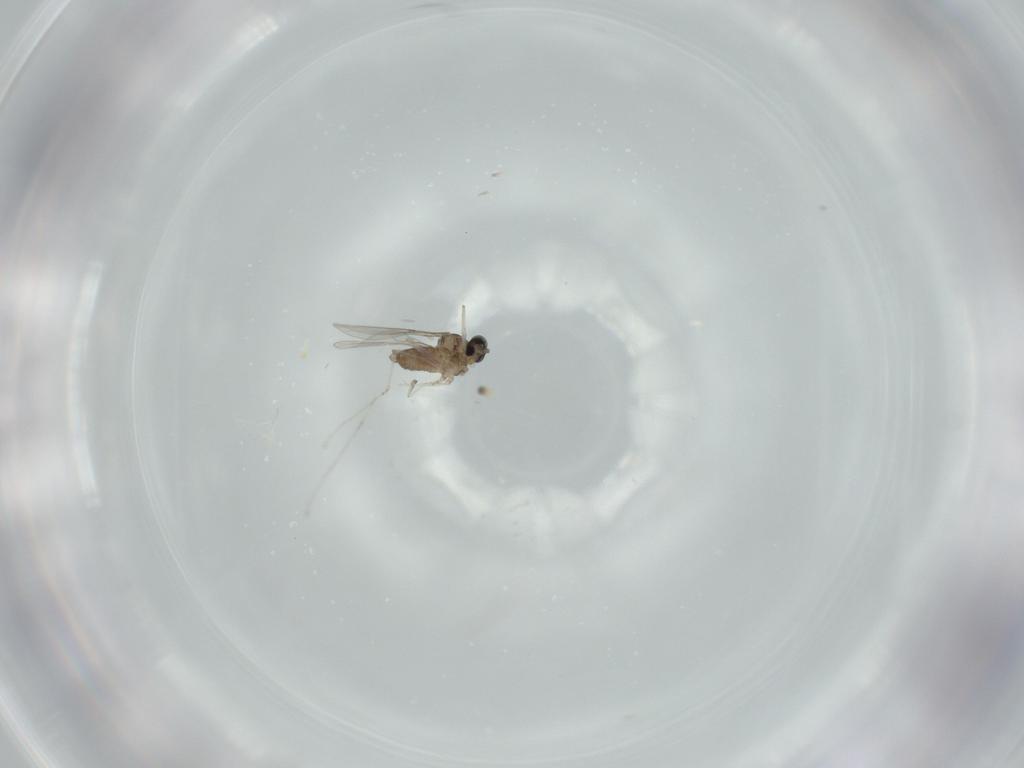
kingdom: Animalia
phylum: Arthropoda
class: Insecta
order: Diptera
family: Cecidomyiidae
